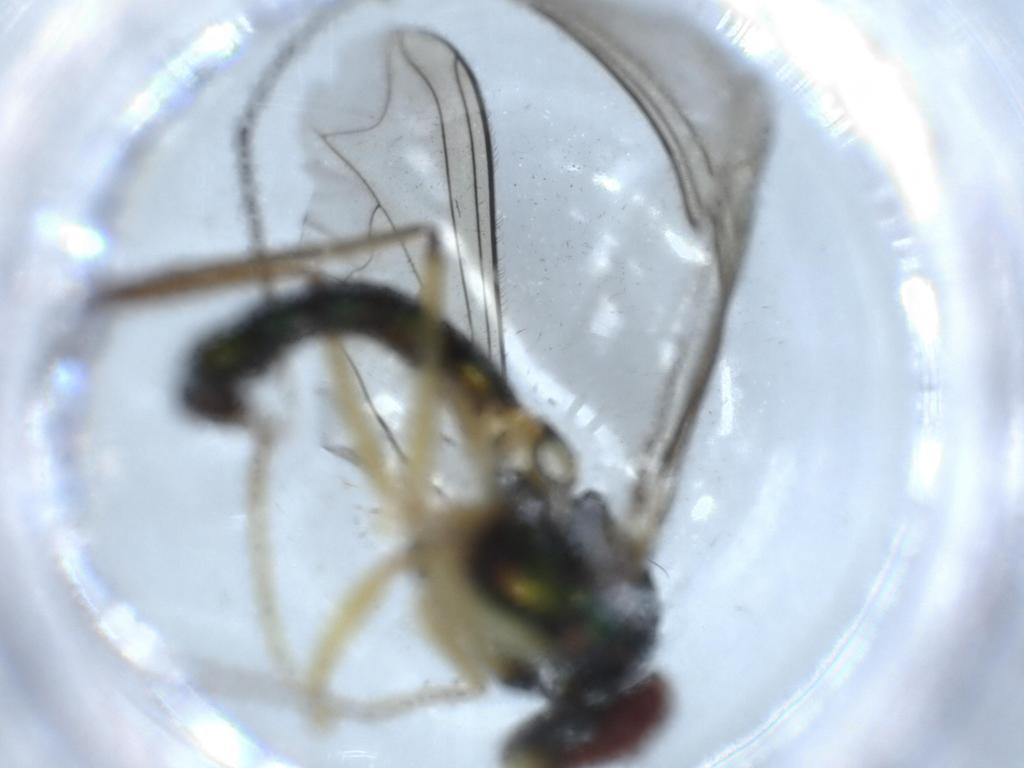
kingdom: Animalia
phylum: Arthropoda
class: Insecta
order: Diptera
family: Dolichopodidae
